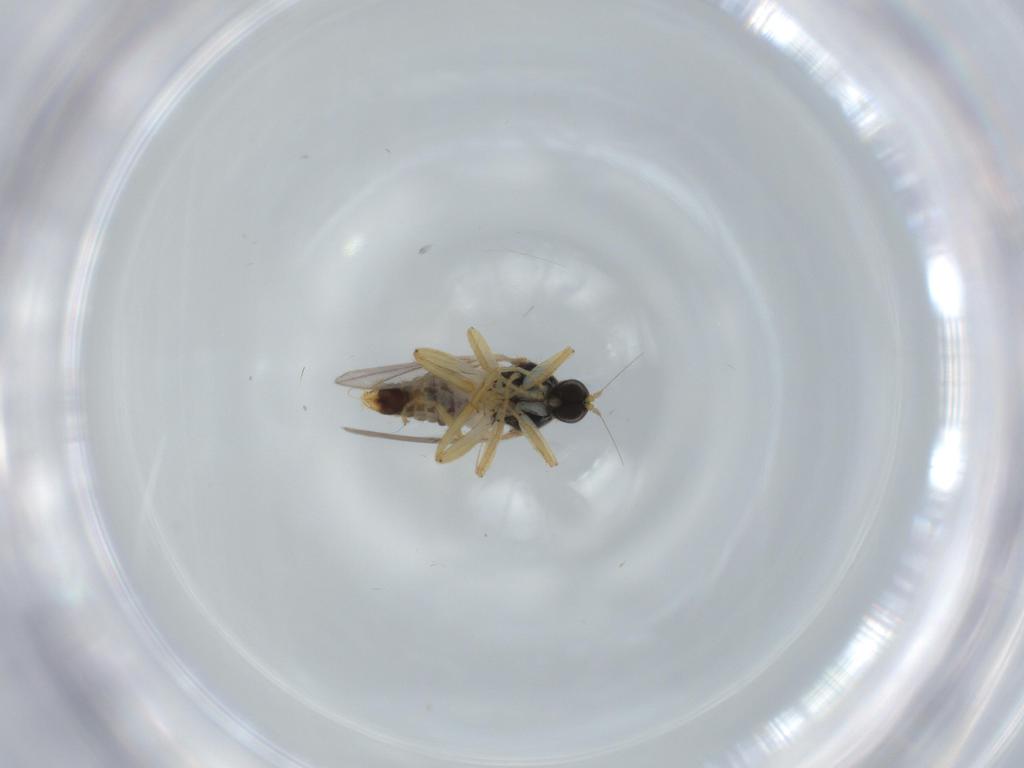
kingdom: Animalia
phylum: Arthropoda
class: Insecta
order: Diptera
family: Hybotidae
